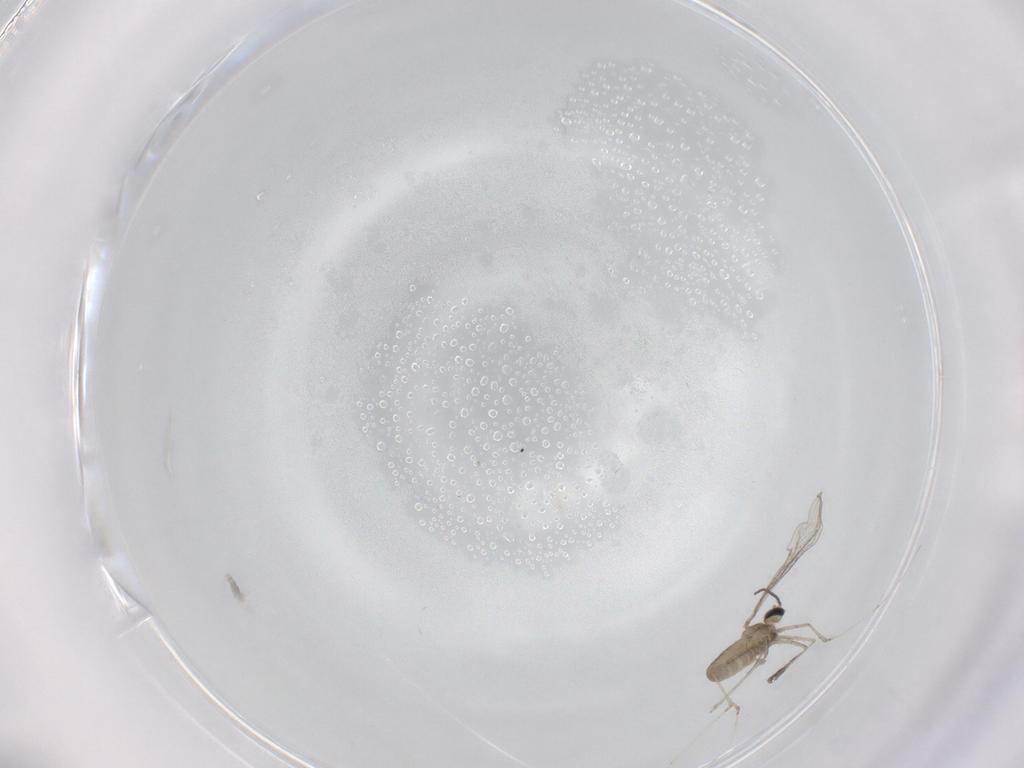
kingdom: Animalia
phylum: Arthropoda
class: Insecta
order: Diptera
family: Cecidomyiidae
